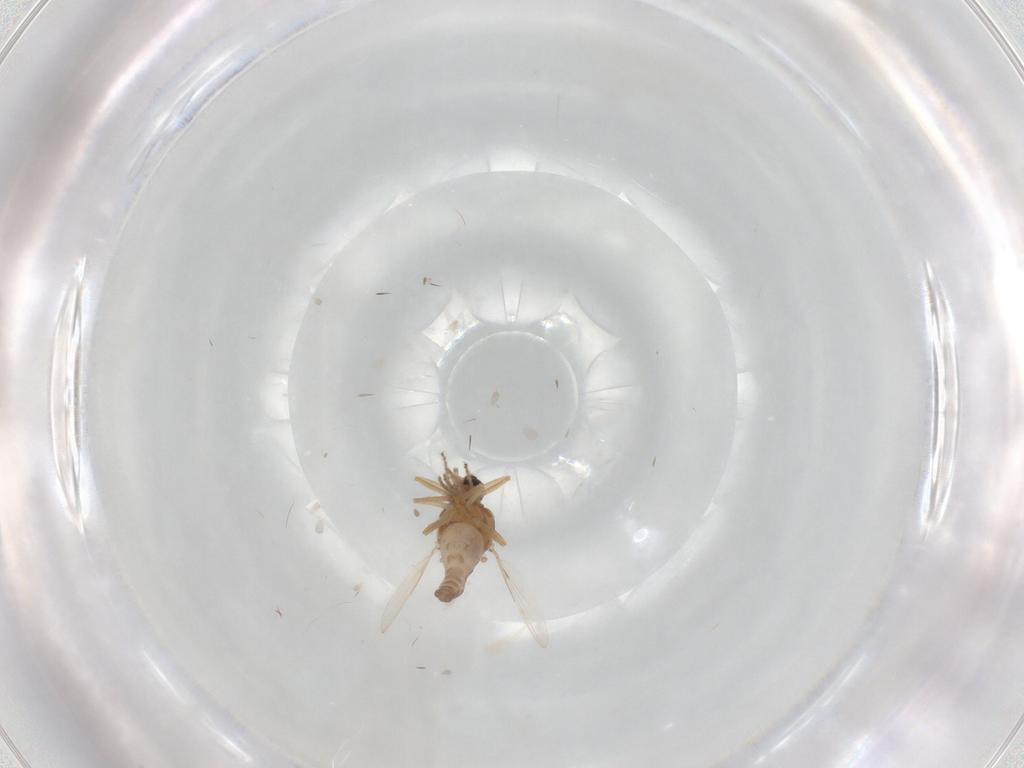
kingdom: Animalia
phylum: Arthropoda
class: Insecta
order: Diptera
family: Ceratopogonidae
